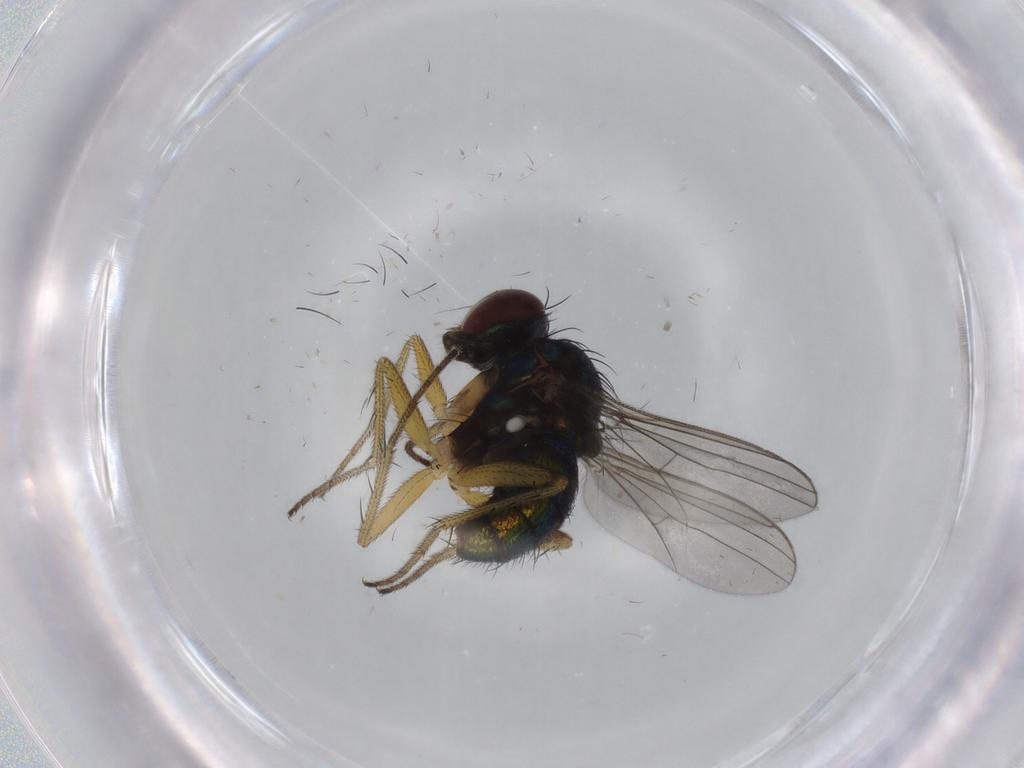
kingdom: Animalia
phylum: Arthropoda
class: Insecta
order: Diptera
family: Dolichopodidae
